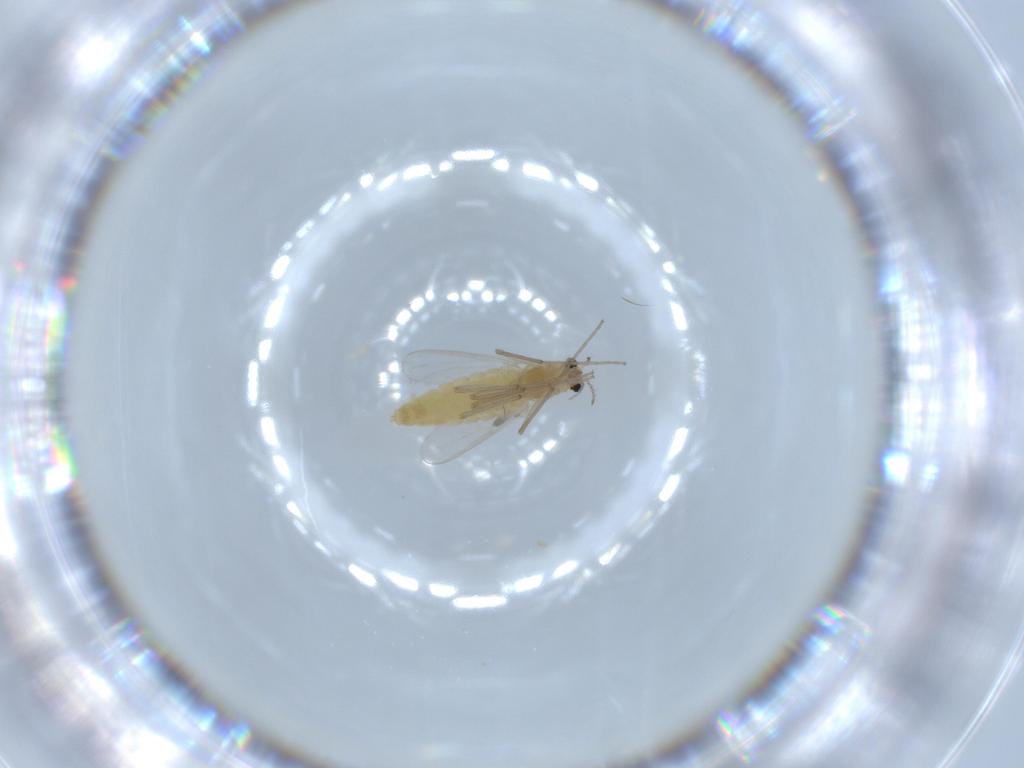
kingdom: Animalia
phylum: Arthropoda
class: Insecta
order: Diptera
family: Chironomidae
